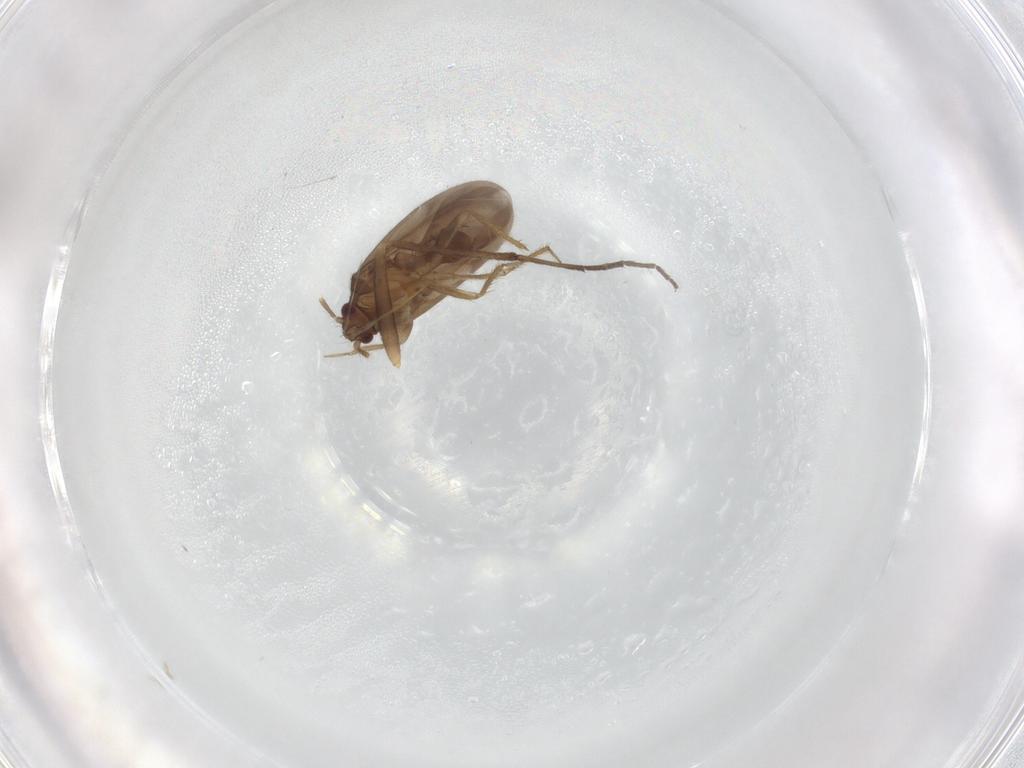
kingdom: Animalia
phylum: Arthropoda
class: Insecta
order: Hemiptera
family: Ceratocombidae
